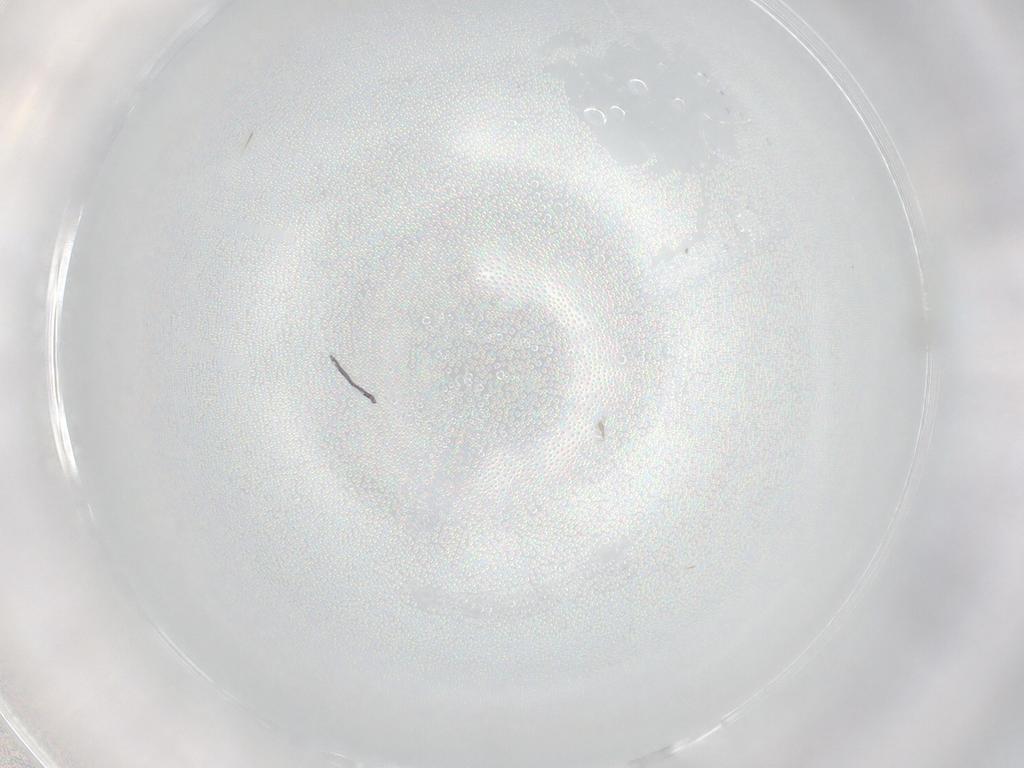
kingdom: Animalia
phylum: Arthropoda
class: Arachnida
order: Trombidiformes
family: Erythraeidae
